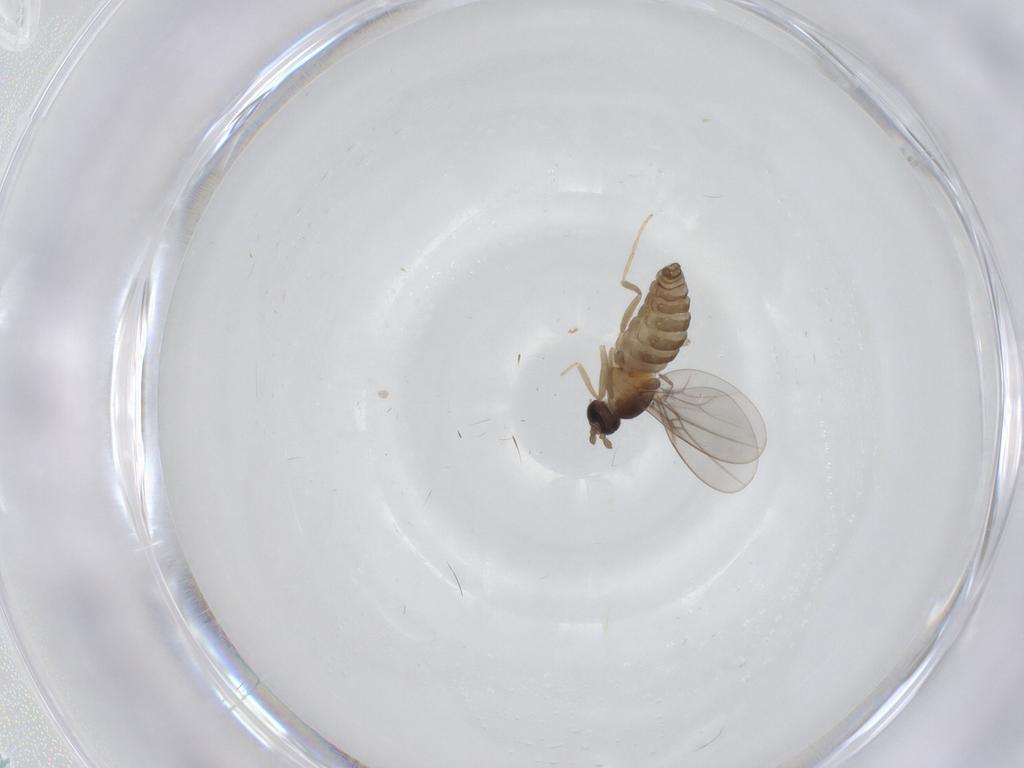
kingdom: Animalia
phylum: Arthropoda
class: Insecta
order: Diptera
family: Cecidomyiidae
